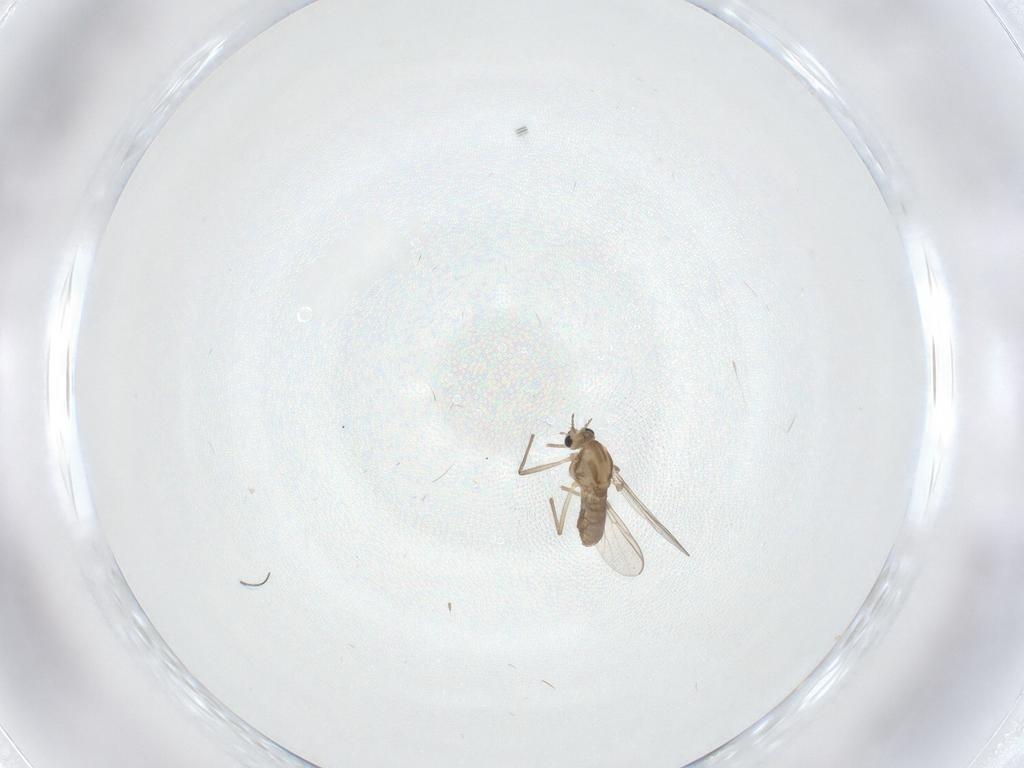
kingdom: Animalia
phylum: Arthropoda
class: Insecta
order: Diptera
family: Cecidomyiidae
